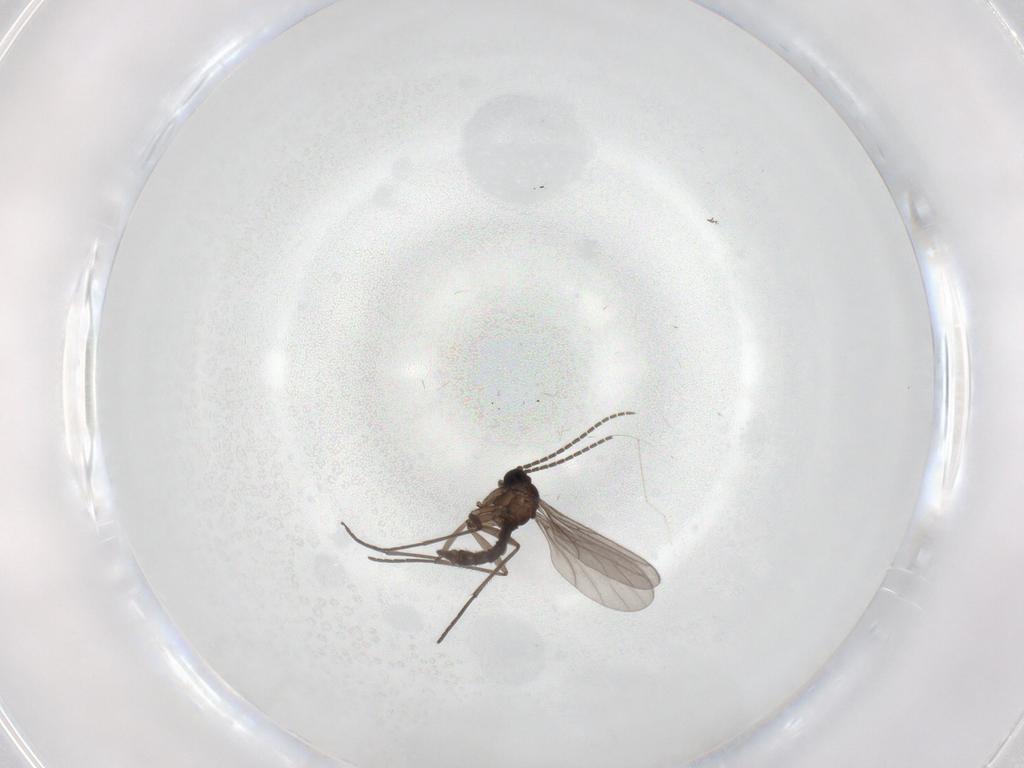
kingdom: Animalia
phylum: Arthropoda
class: Insecta
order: Diptera
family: Sciaridae
